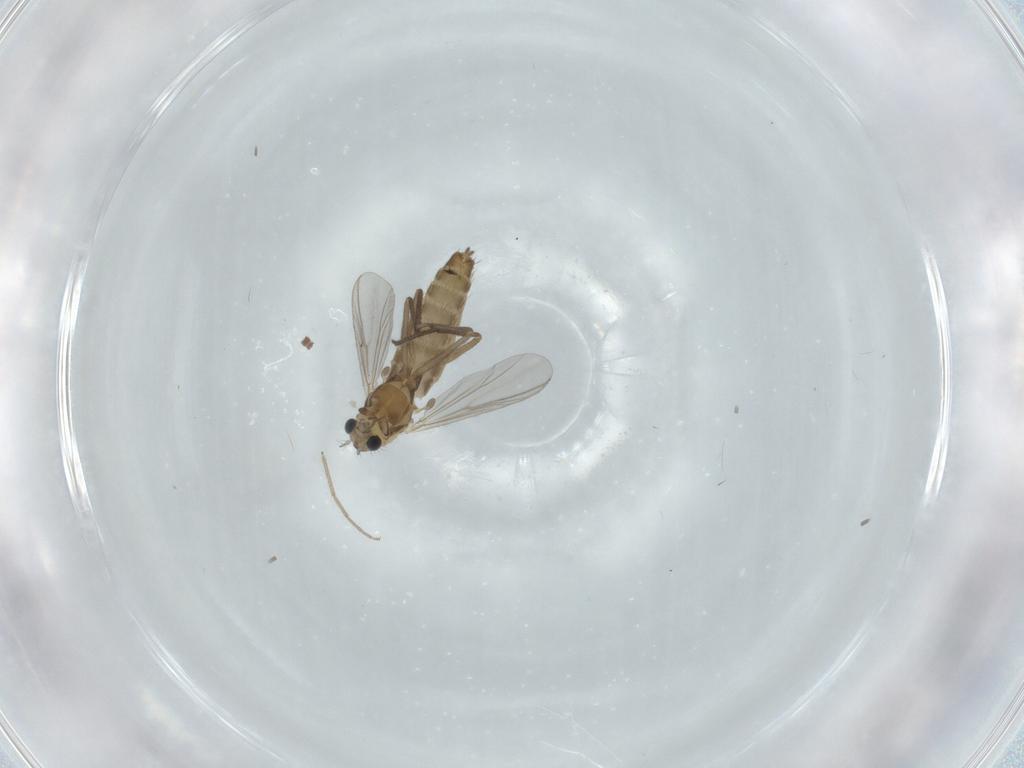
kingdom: Animalia
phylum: Arthropoda
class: Insecta
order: Diptera
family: Chironomidae
